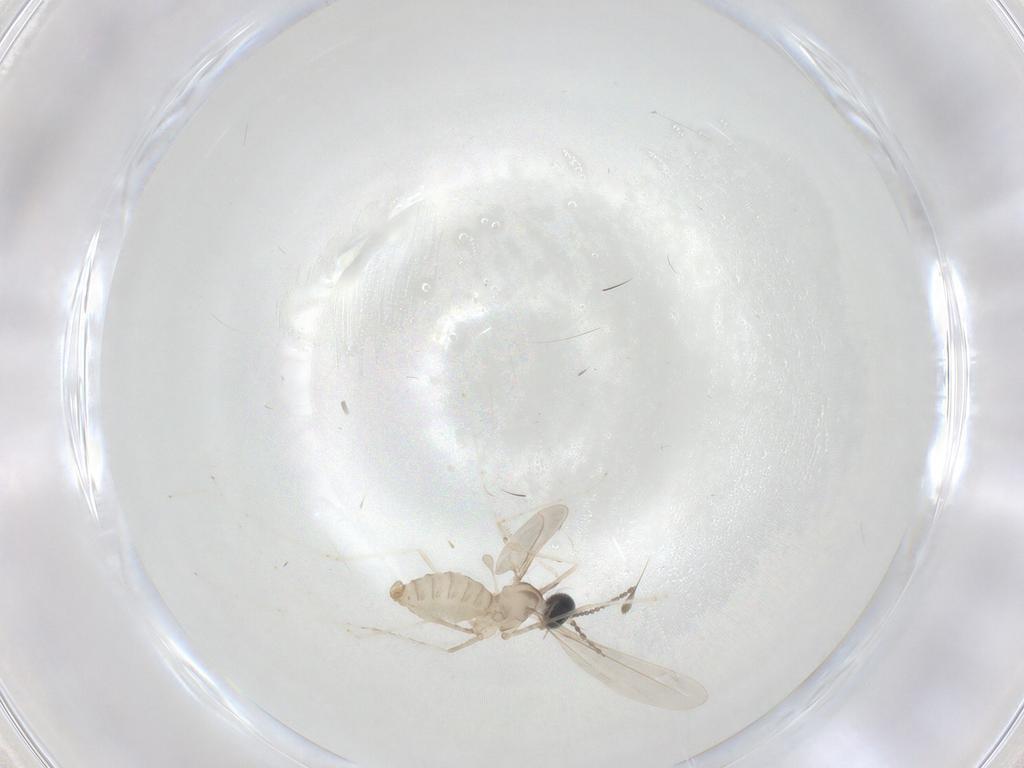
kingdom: Animalia
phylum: Arthropoda
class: Insecta
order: Diptera
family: Cecidomyiidae
